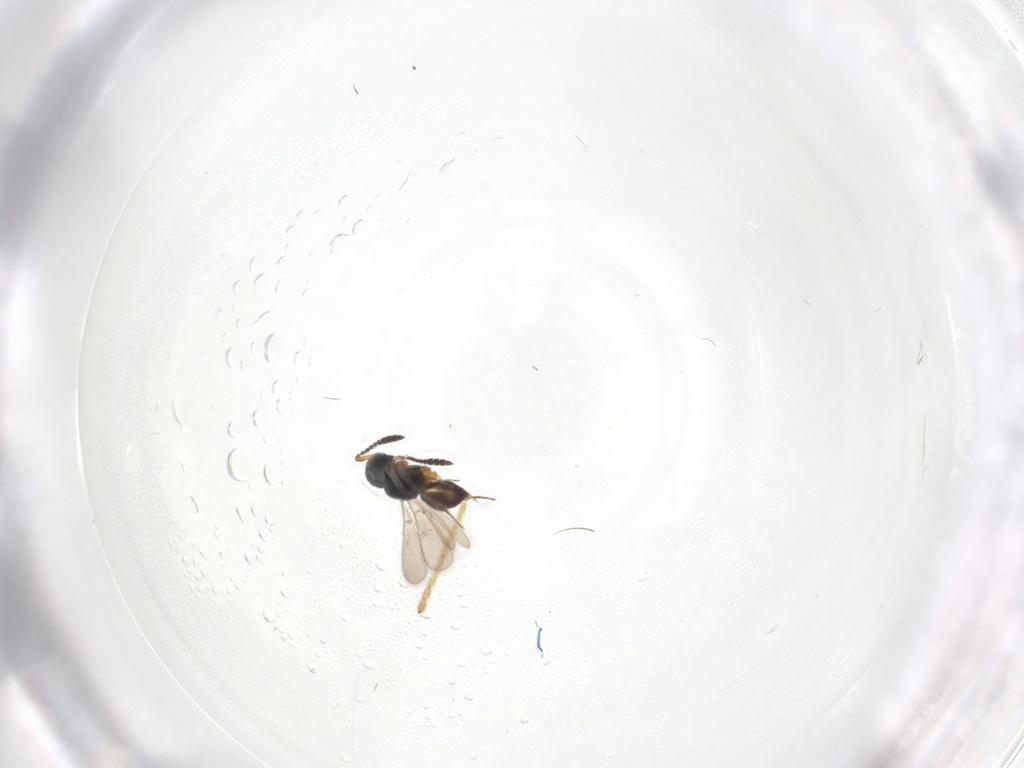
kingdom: Animalia
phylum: Arthropoda
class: Insecta
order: Hymenoptera
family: Scelionidae
